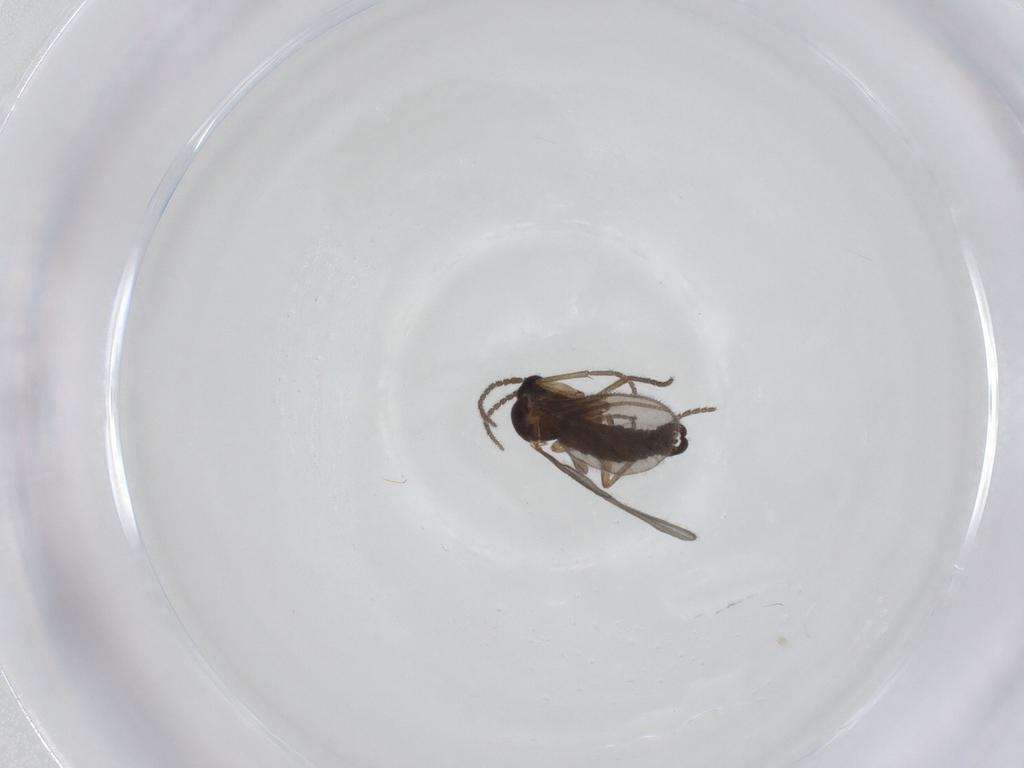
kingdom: Animalia
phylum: Arthropoda
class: Insecta
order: Diptera
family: Sciaridae
